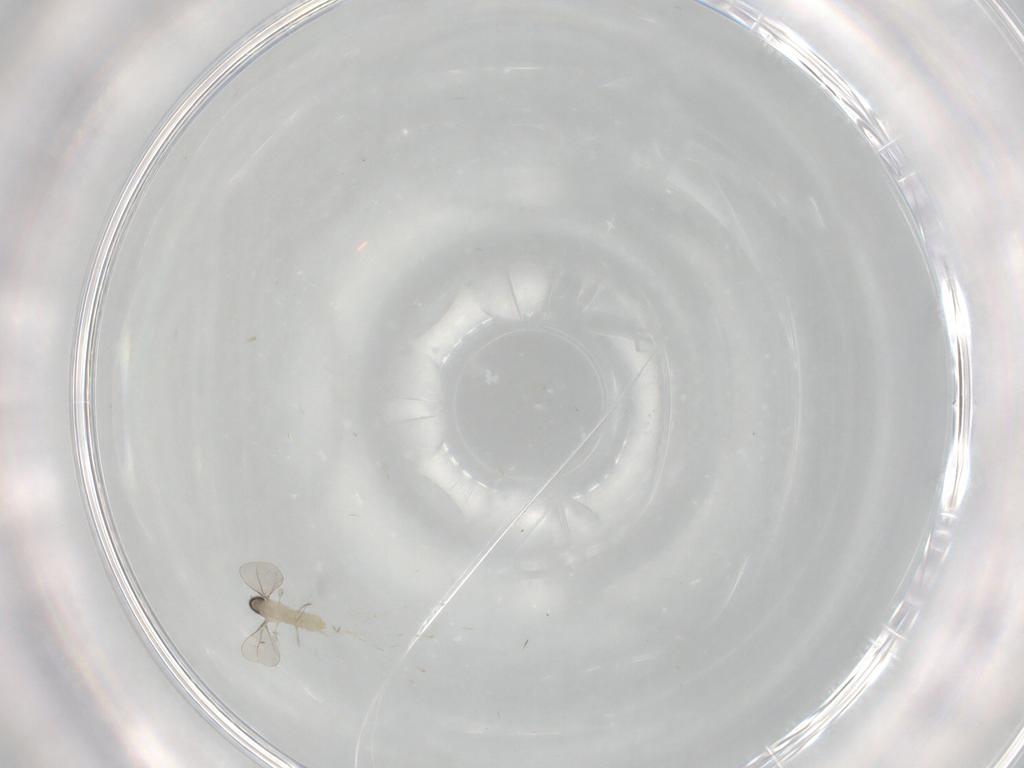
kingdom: Animalia
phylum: Arthropoda
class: Insecta
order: Diptera
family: Cecidomyiidae
